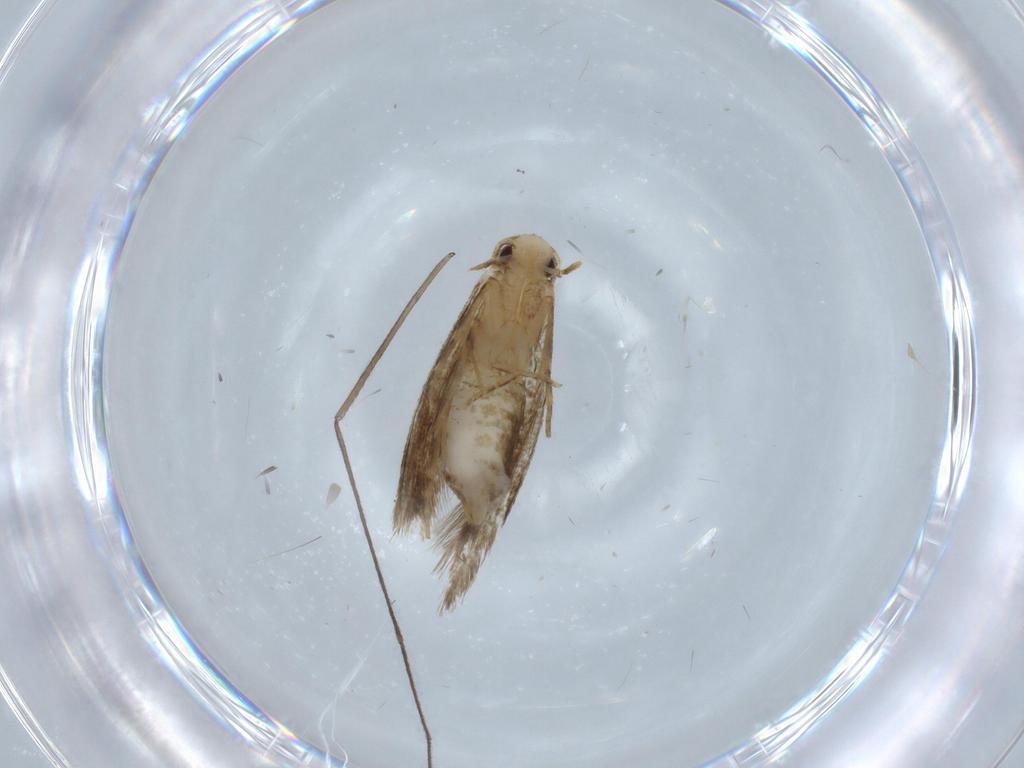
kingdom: Animalia
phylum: Arthropoda
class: Insecta
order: Lepidoptera
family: Tineidae
